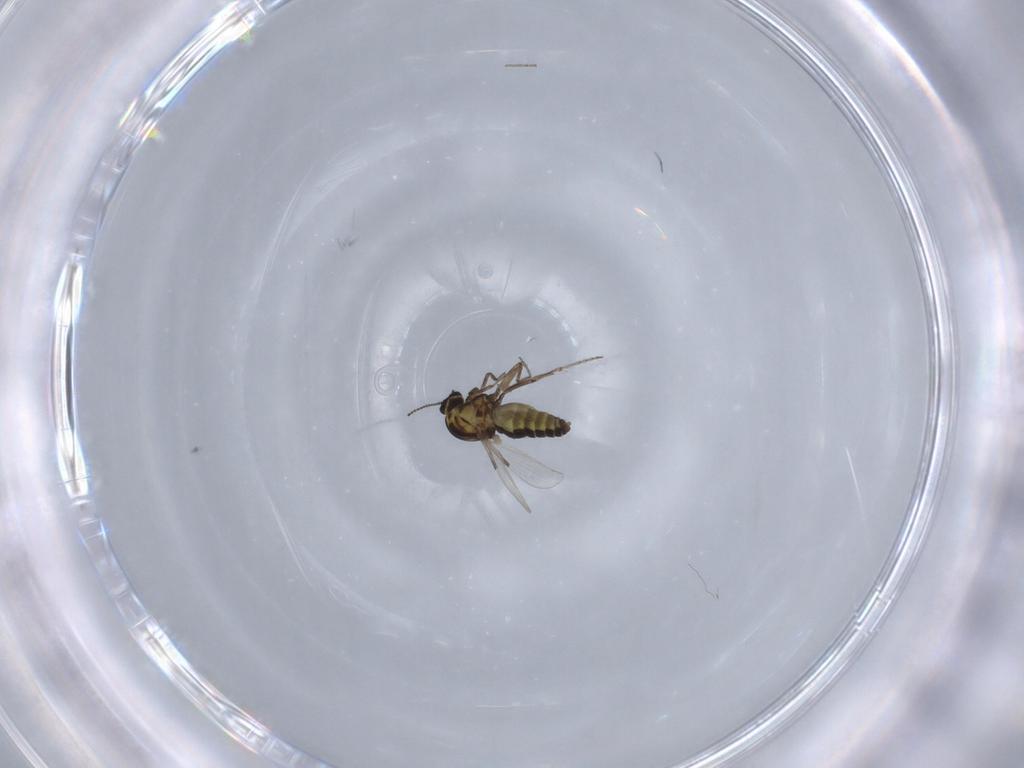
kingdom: Animalia
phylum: Arthropoda
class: Insecta
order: Diptera
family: Ceratopogonidae
